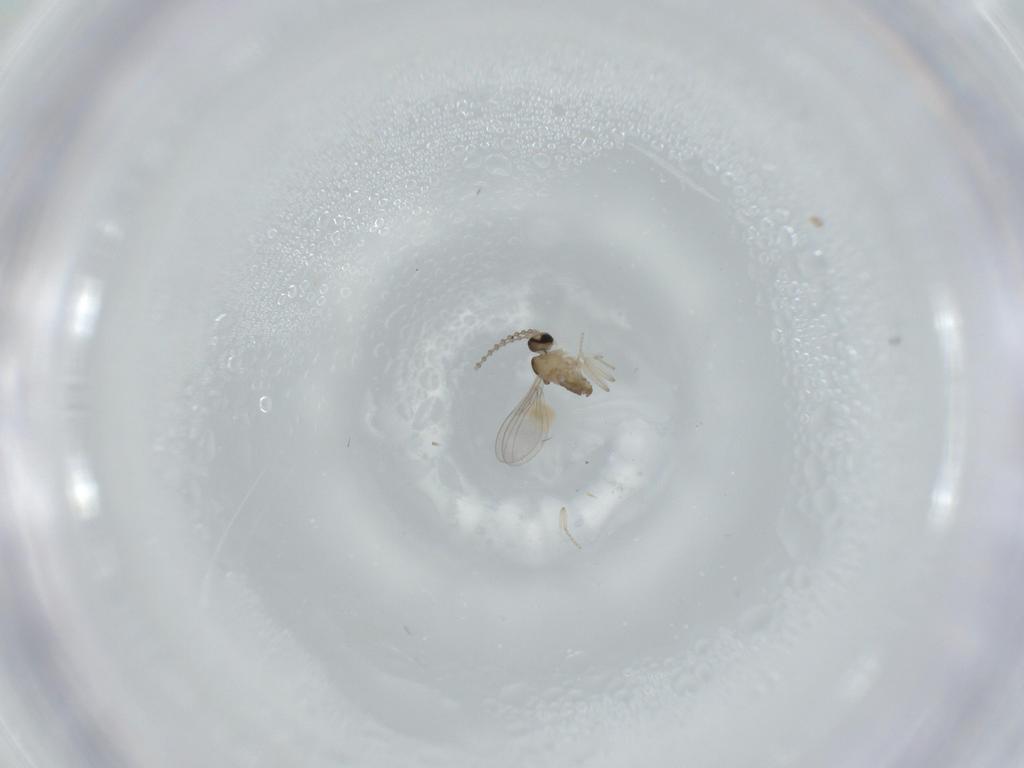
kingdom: Animalia
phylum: Arthropoda
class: Insecta
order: Diptera
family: Cecidomyiidae
